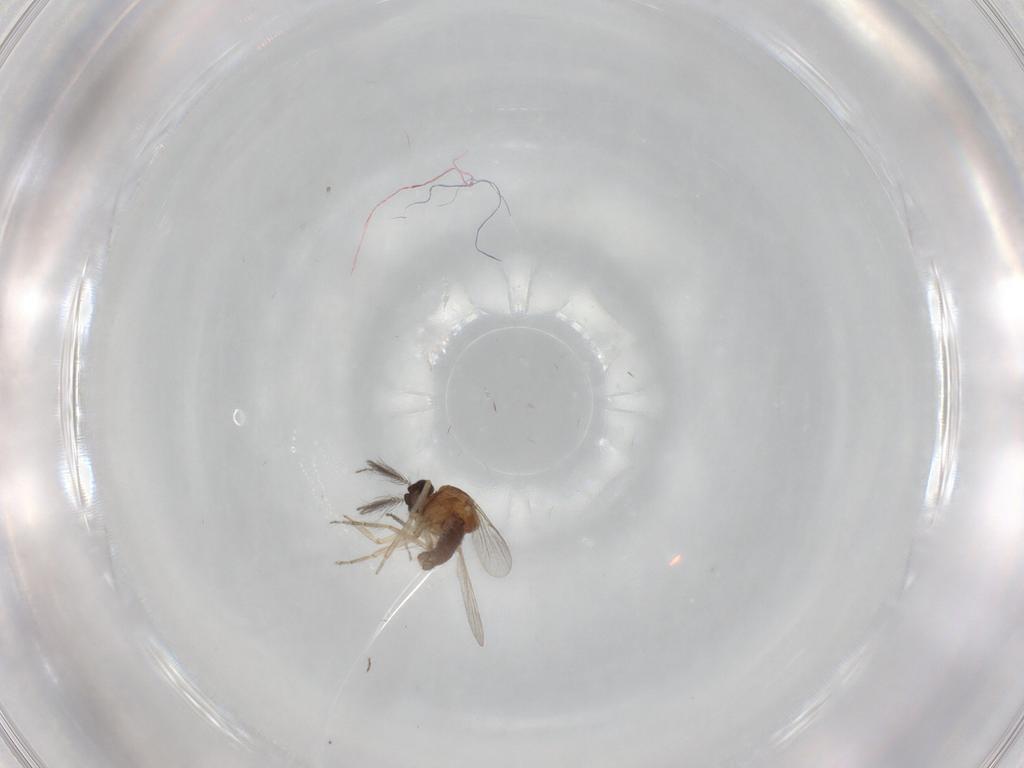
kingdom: Animalia
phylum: Arthropoda
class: Insecta
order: Diptera
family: Ceratopogonidae
